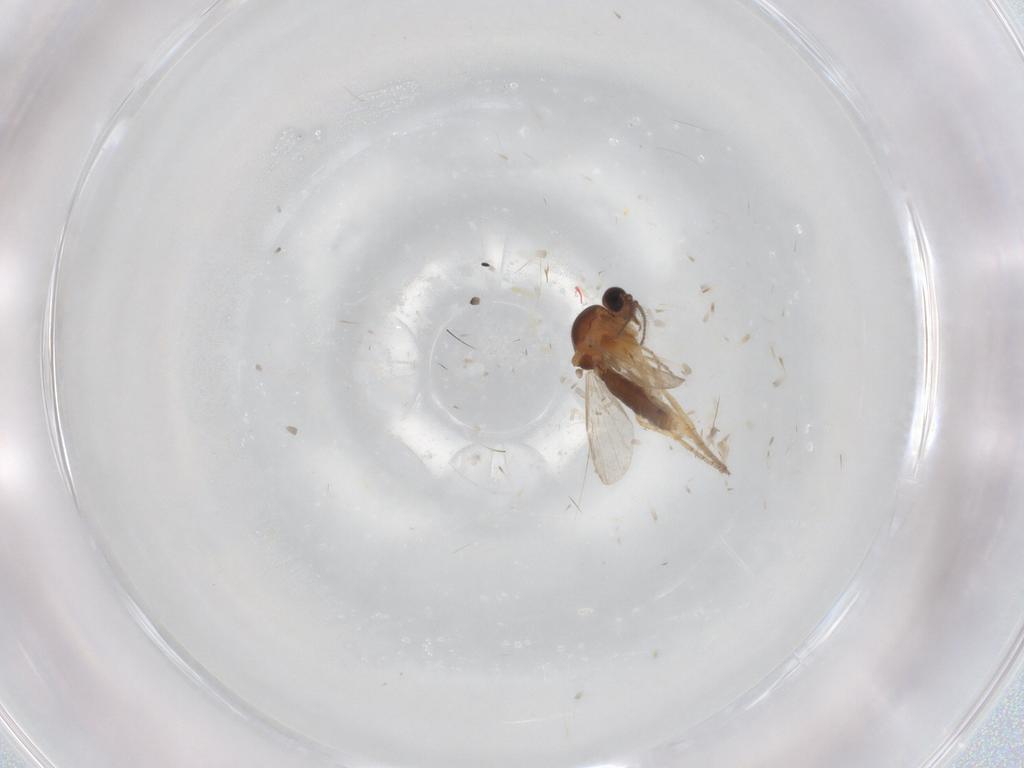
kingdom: Animalia
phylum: Arthropoda
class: Insecta
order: Diptera
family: Ceratopogonidae
